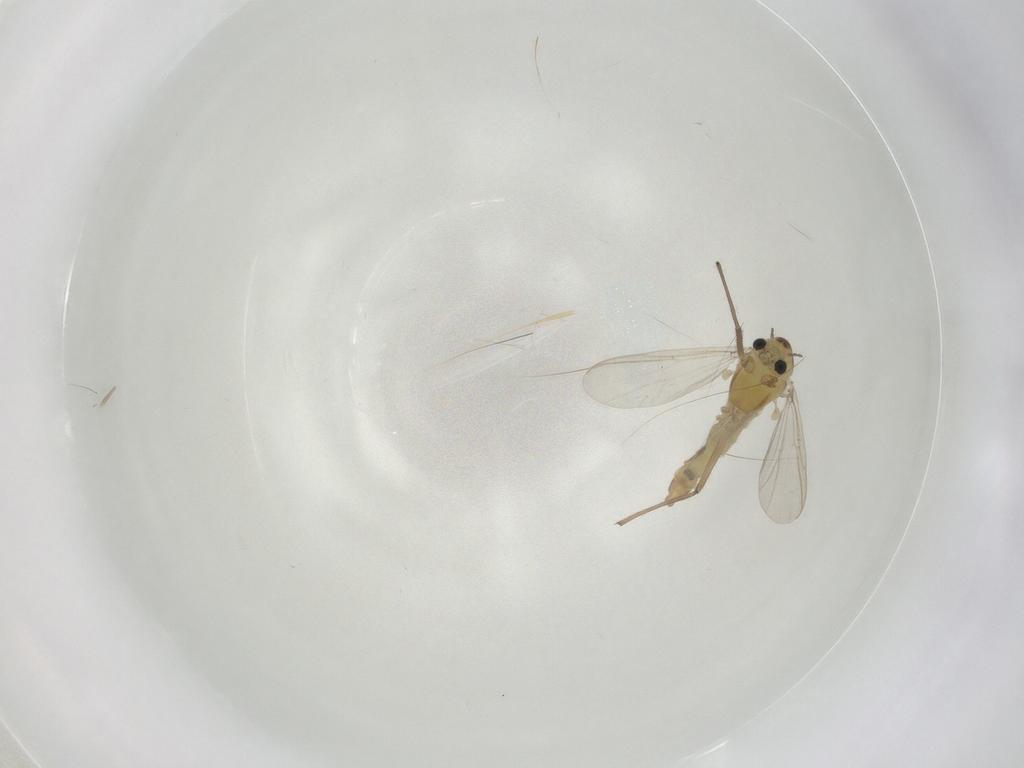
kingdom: Animalia
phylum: Arthropoda
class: Insecta
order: Diptera
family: Chironomidae
